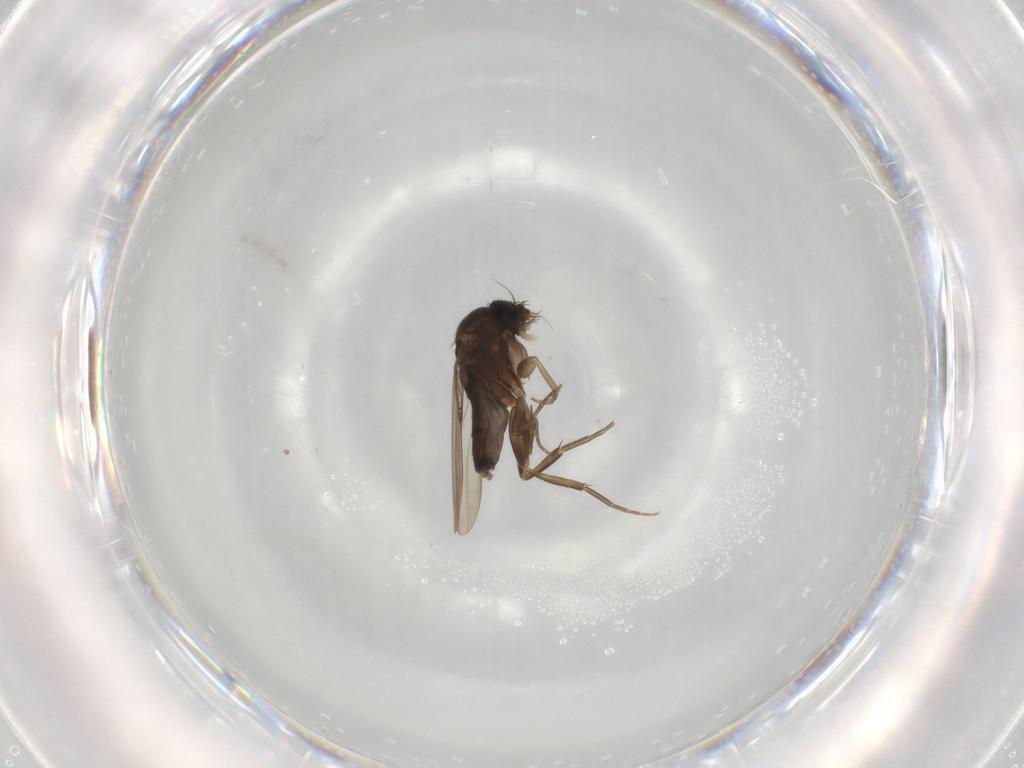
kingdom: Animalia
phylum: Arthropoda
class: Insecta
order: Diptera
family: Phoridae
